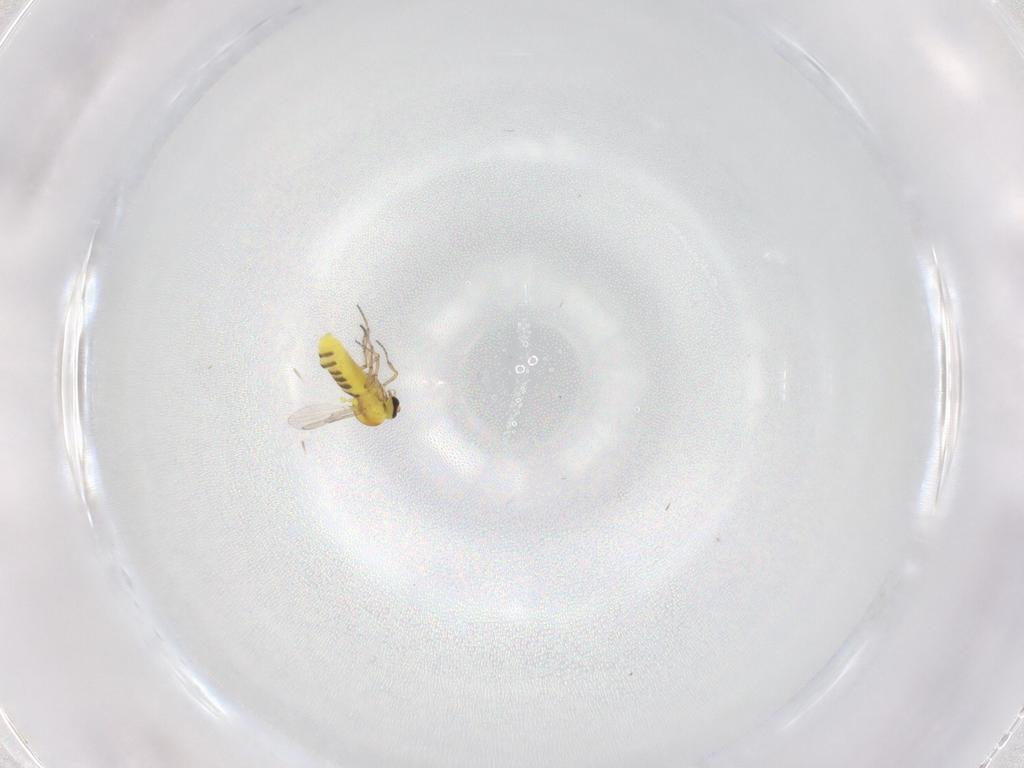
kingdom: Animalia
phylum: Arthropoda
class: Insecta
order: Diptera
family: Ceratopogonidae
